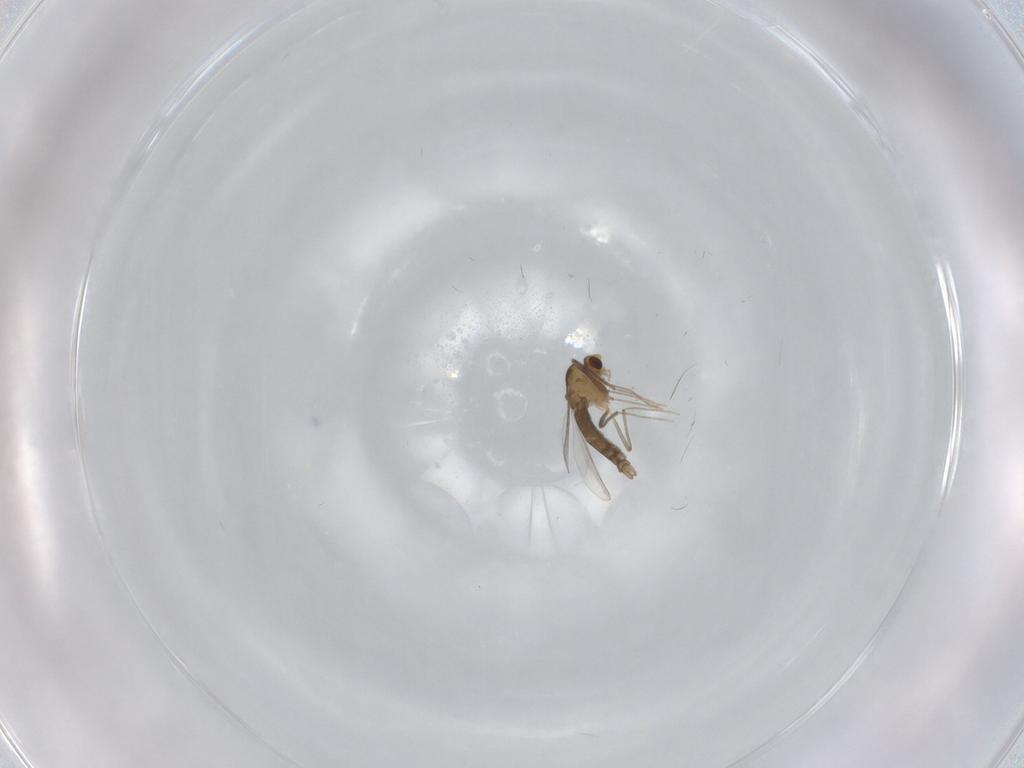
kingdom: Animalia
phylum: Arthropoda
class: Insecta
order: Diptera
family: Chironomidae
